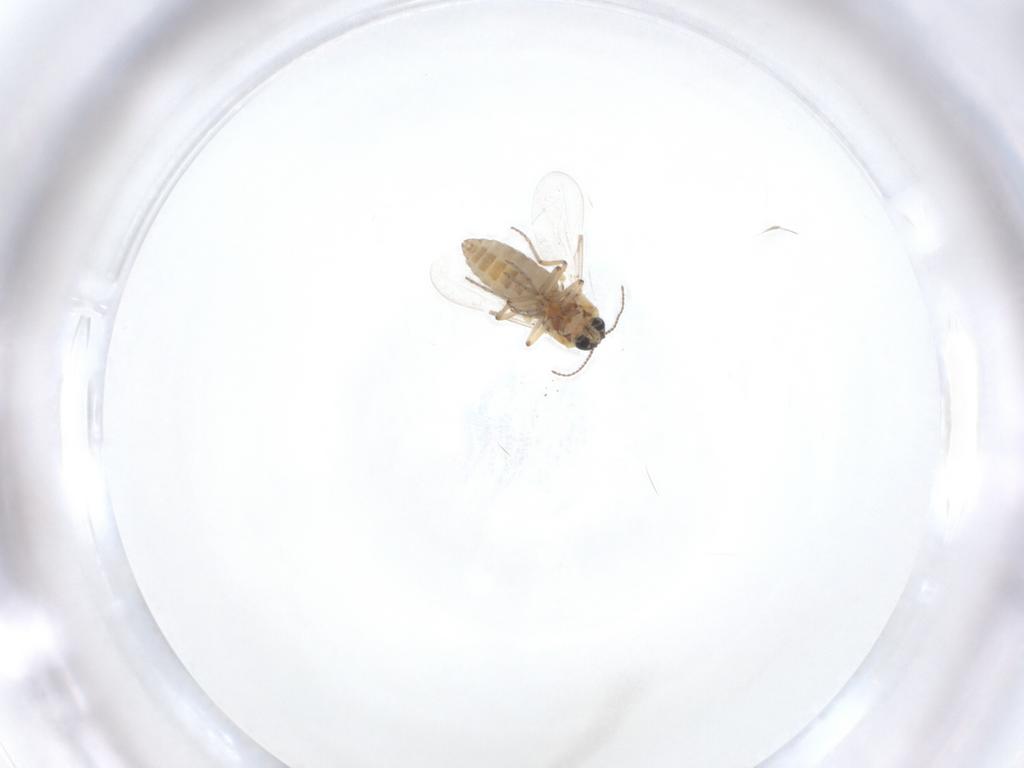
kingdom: Animalia
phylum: Arthropoda
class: Insecta
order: Diptera
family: Ceratopogonidae
